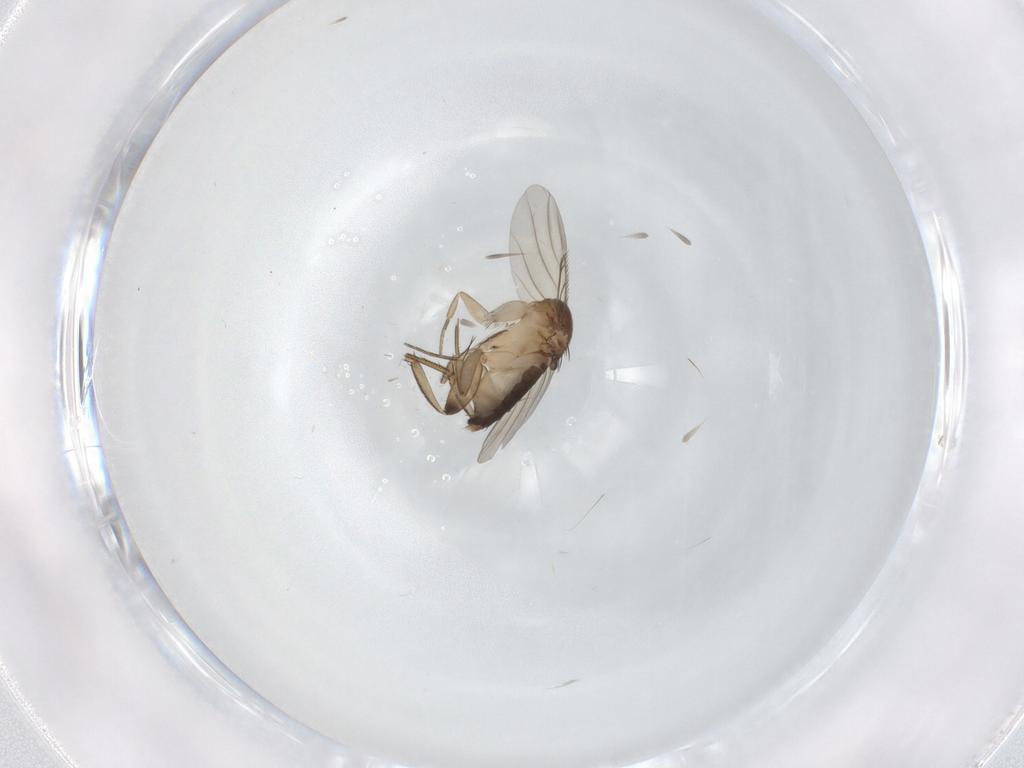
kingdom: Animalia
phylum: Arthropoda
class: Insecta
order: Diptera
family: Phoridae
